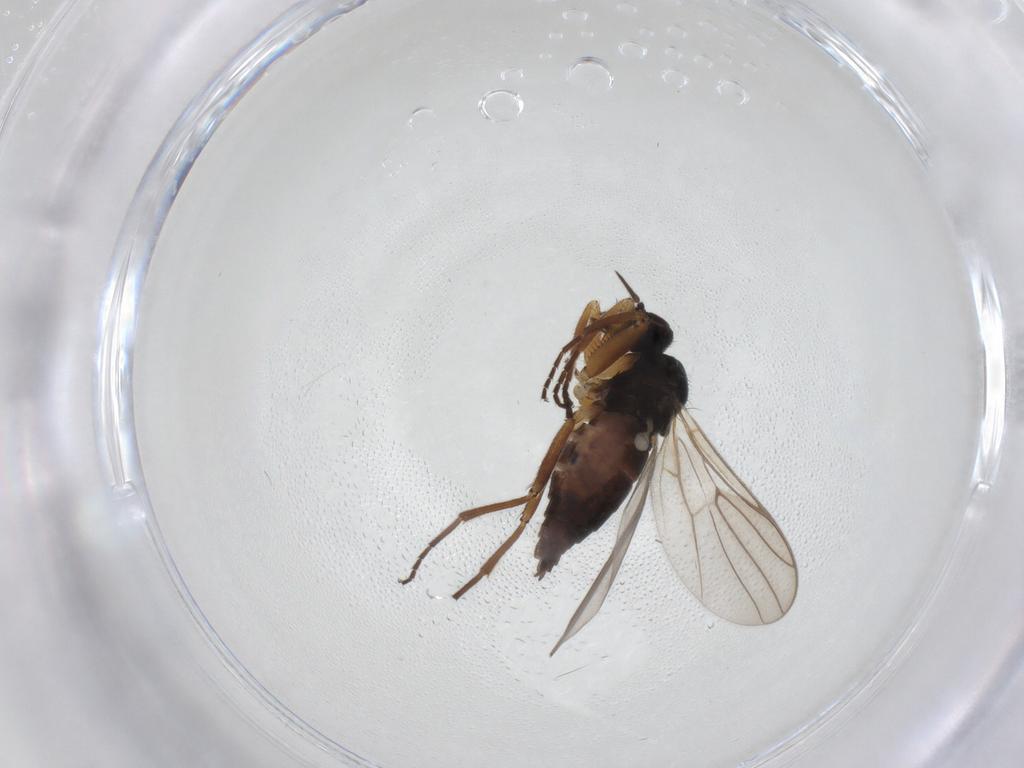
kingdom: Animalia
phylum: Arthropoda
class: Insecta
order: Diptera
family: Hybotidae
